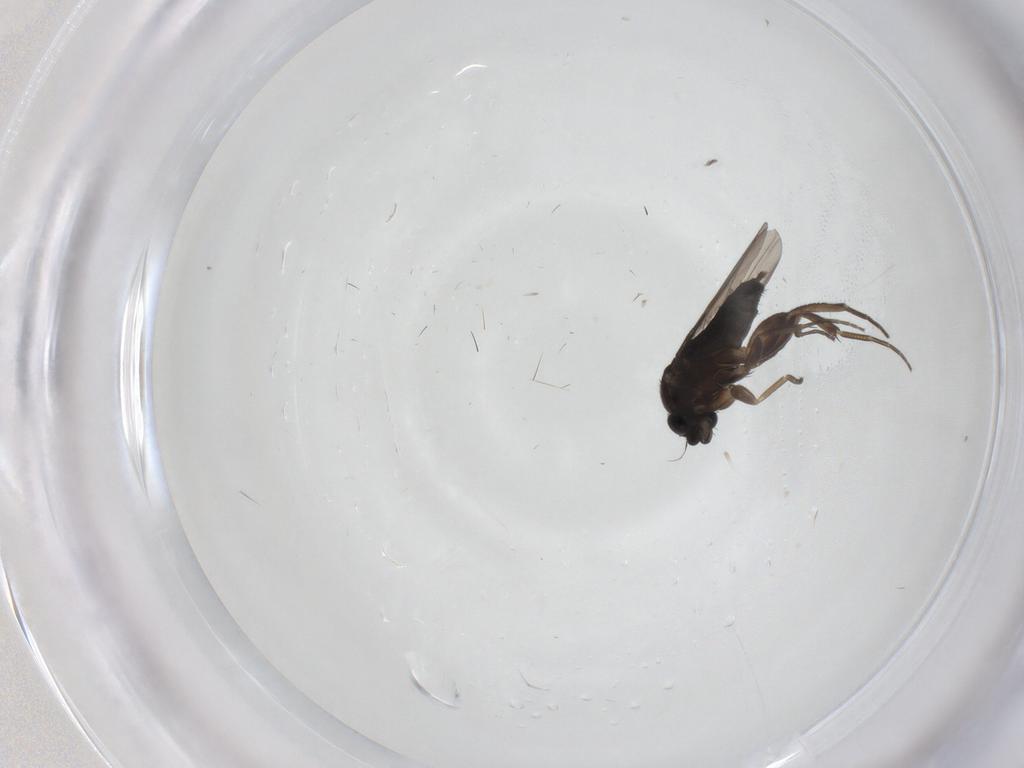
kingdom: Animalia
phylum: Arthropoda
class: Insecta
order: Diptera
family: Phoridae
